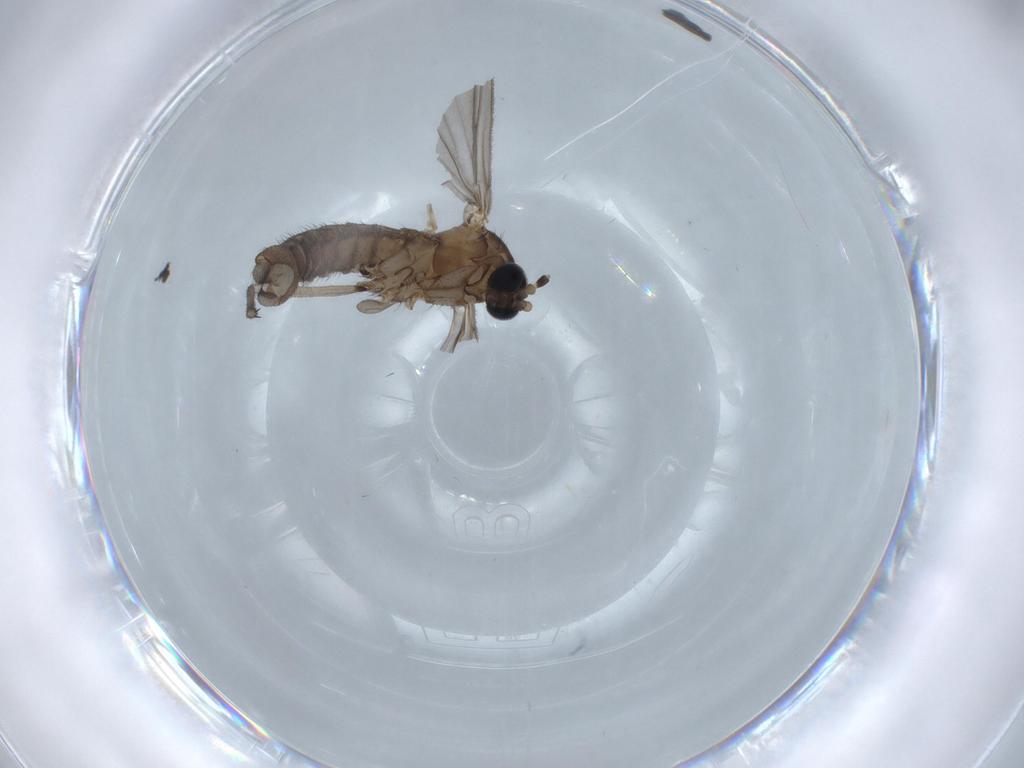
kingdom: Animalia
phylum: Arthropoda
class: Insecta
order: Diptera
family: Sciaridae
